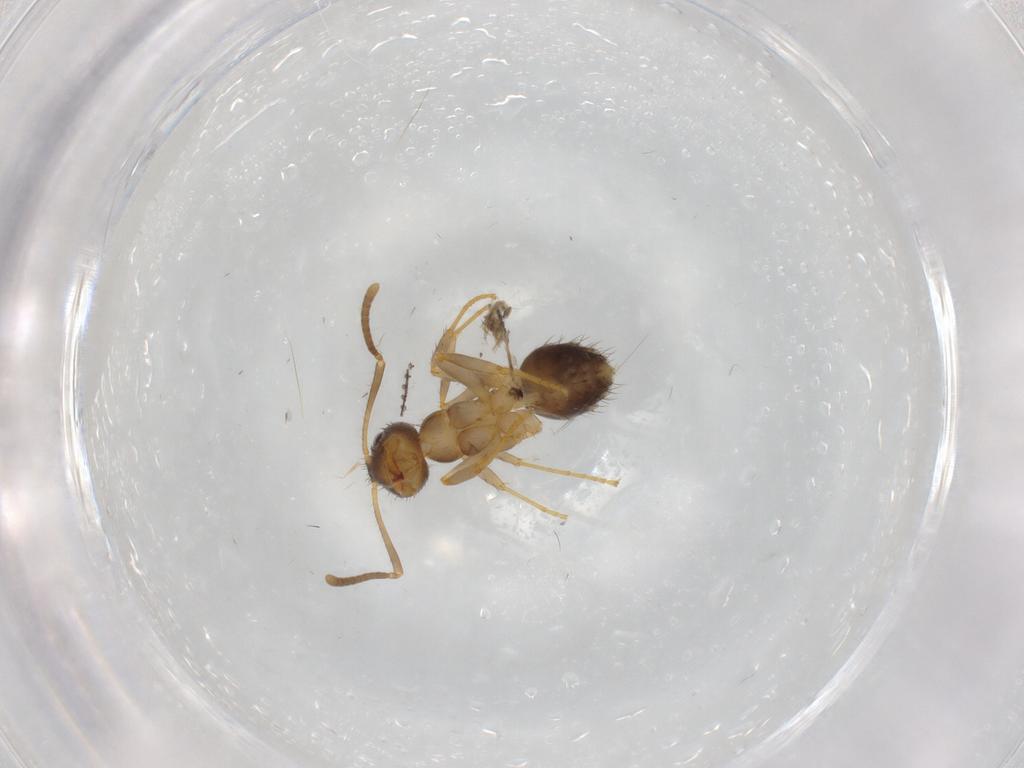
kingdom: Animalia
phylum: Arthropoda
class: Insecta
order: Hymenoptera
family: Formicidae
